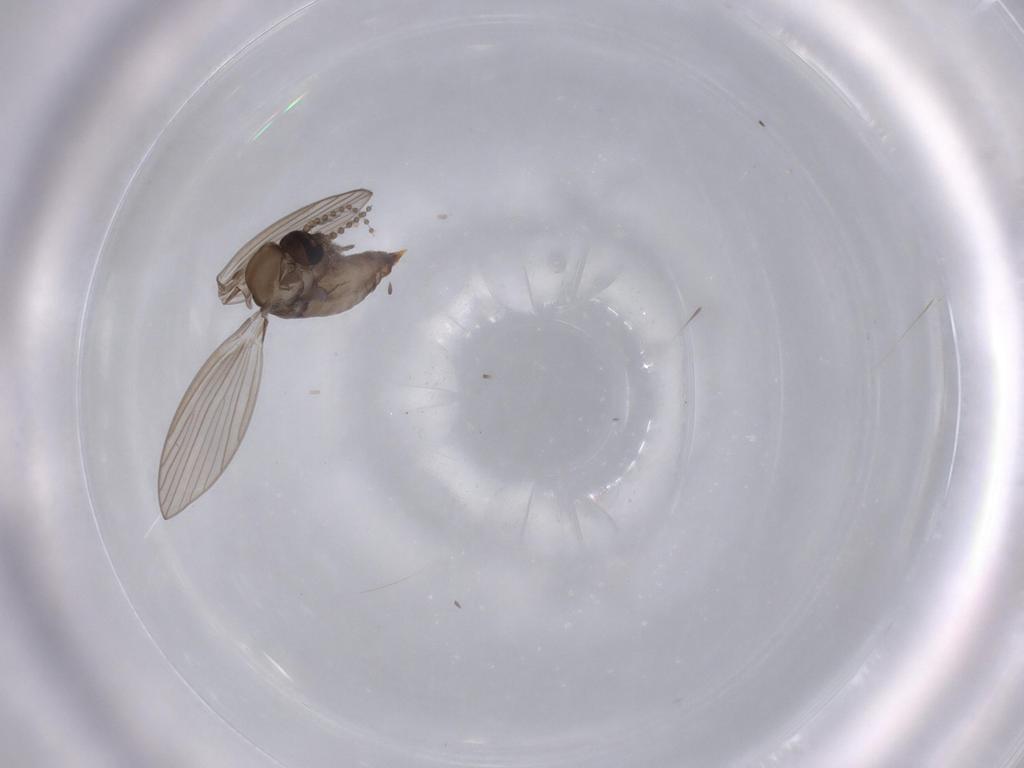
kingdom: Animalia
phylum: Arthropoda
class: Insecta
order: Diptera
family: Psychodidae
